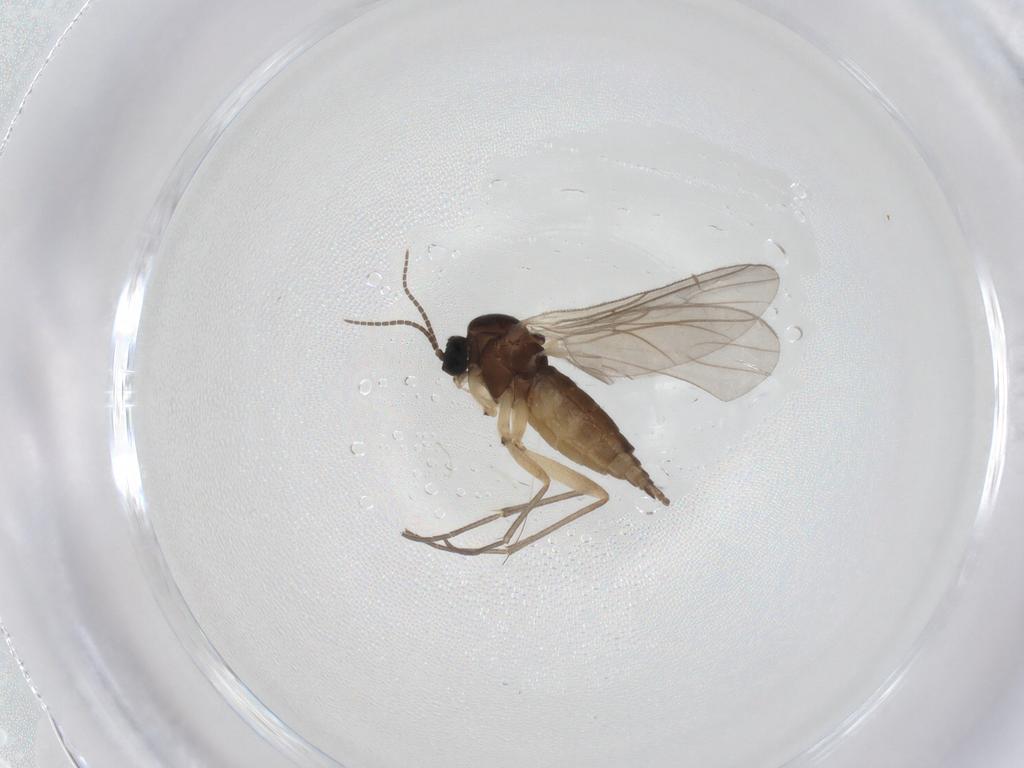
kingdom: Animalia
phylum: Arthropoda
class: Insecta
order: Diptera
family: Sciaridae
